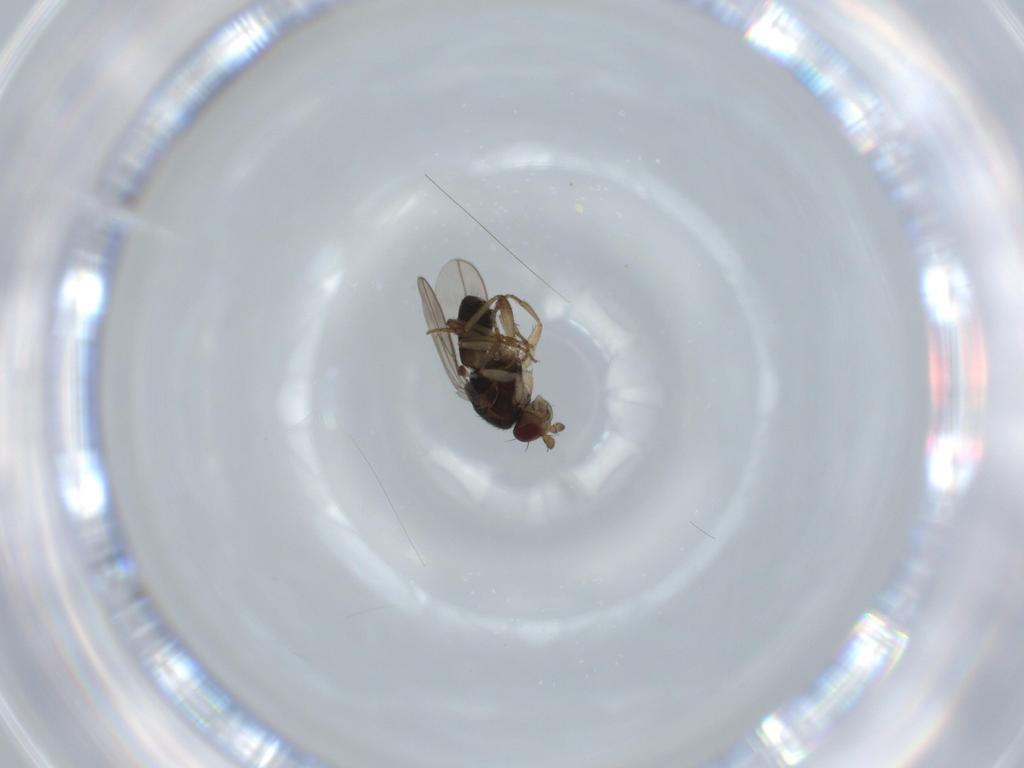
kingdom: Animalia
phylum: Arthropoda
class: Insecta
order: Diptera
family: Sphaeroceridae
